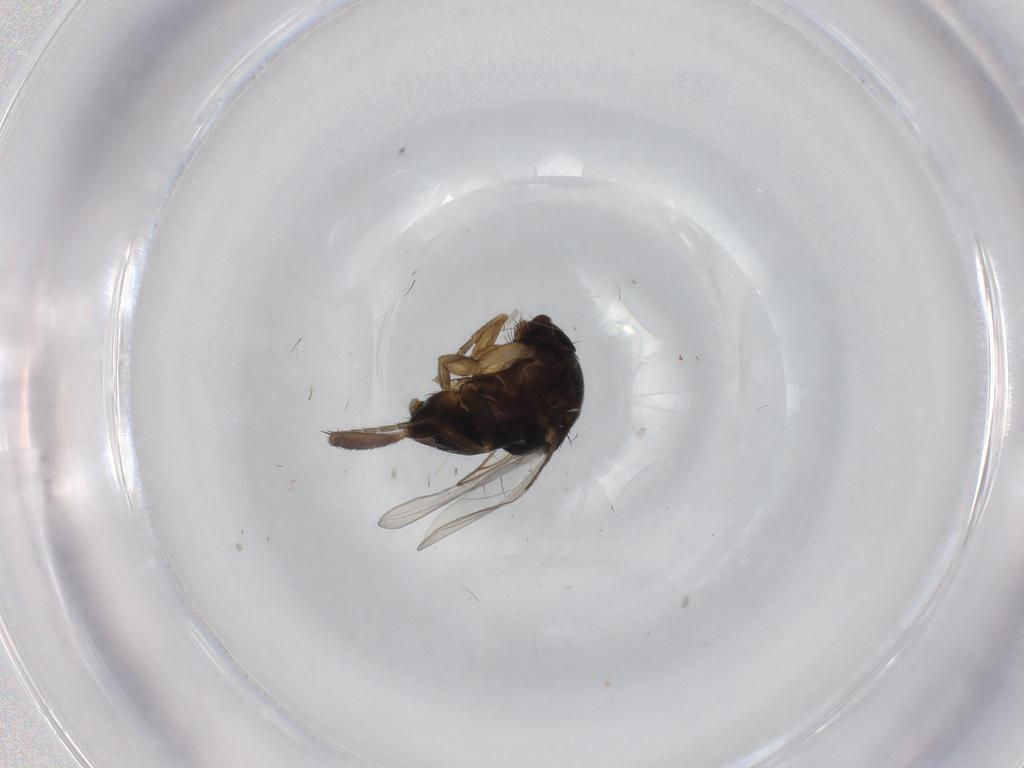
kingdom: Animalia
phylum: Arthropoda
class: Insecta
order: Diptera
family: Phoridae
